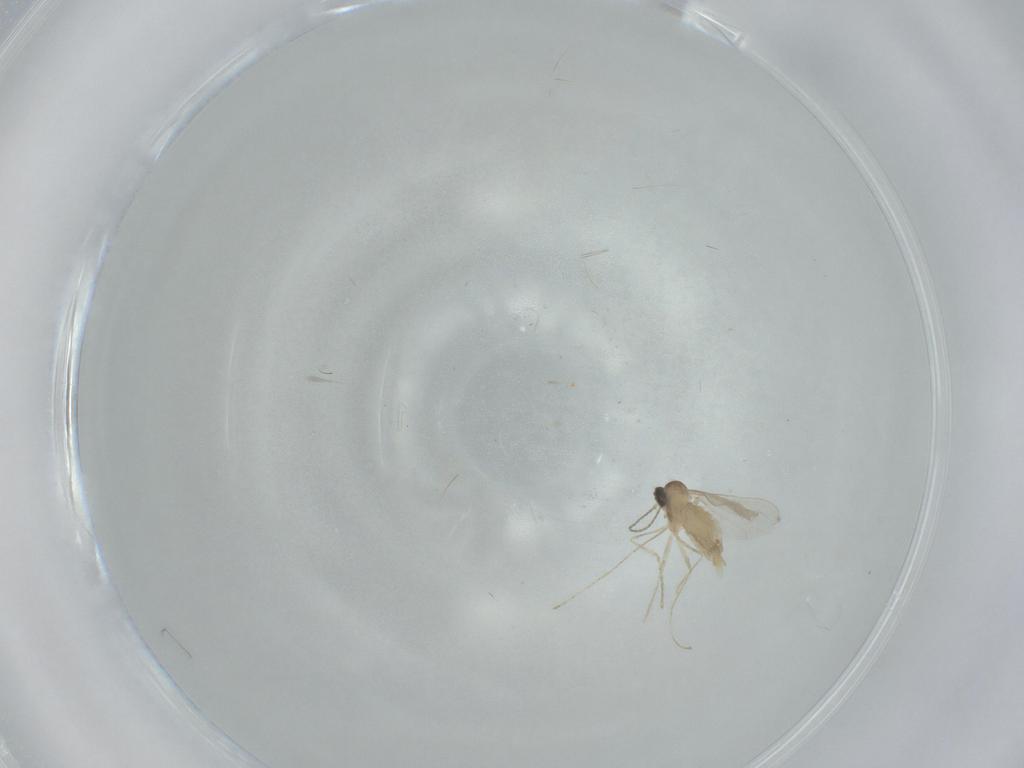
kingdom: Animalia
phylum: Arthropoda
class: Insecta
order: Diptera
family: Cecidomyiidae
